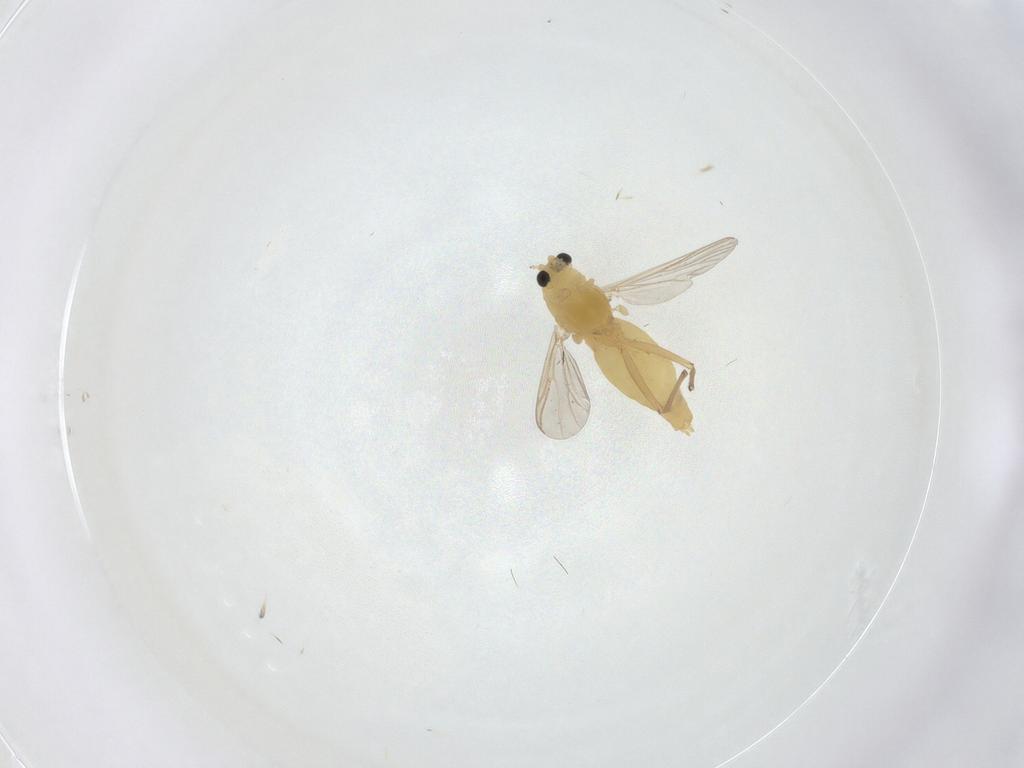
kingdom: Animalia
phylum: Arthropoda
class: Insecta
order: Diptera
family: Chironomidae
